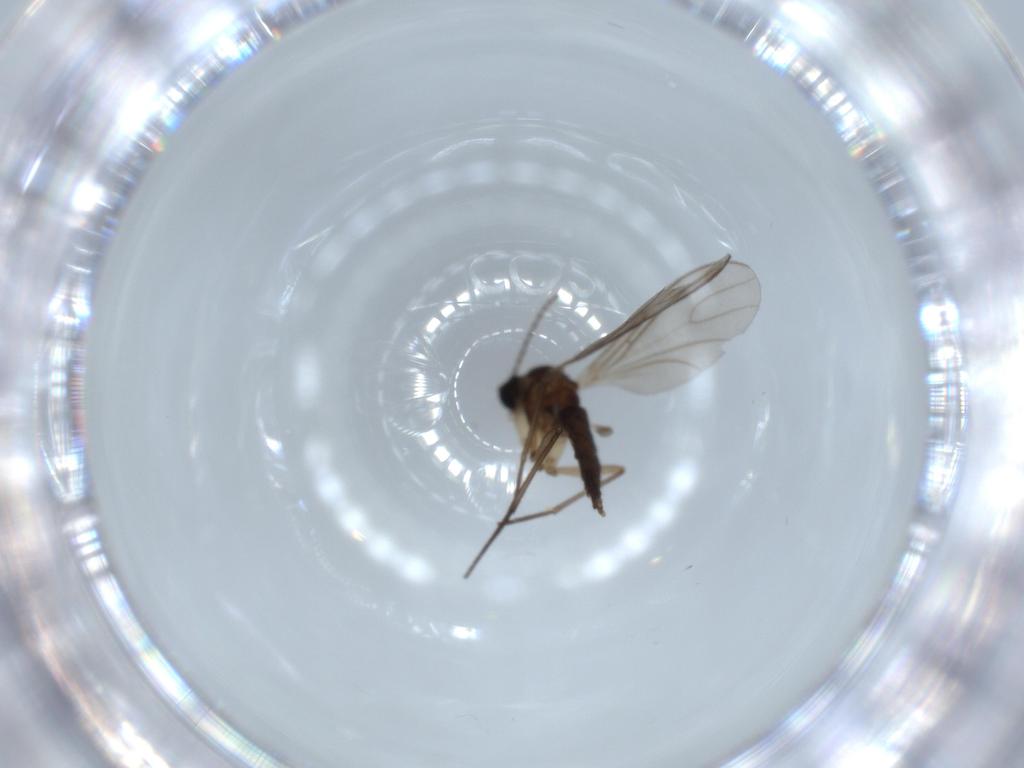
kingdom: Animalia
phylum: Arthropoda
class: Insecta
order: Diptera
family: Sciaridae
